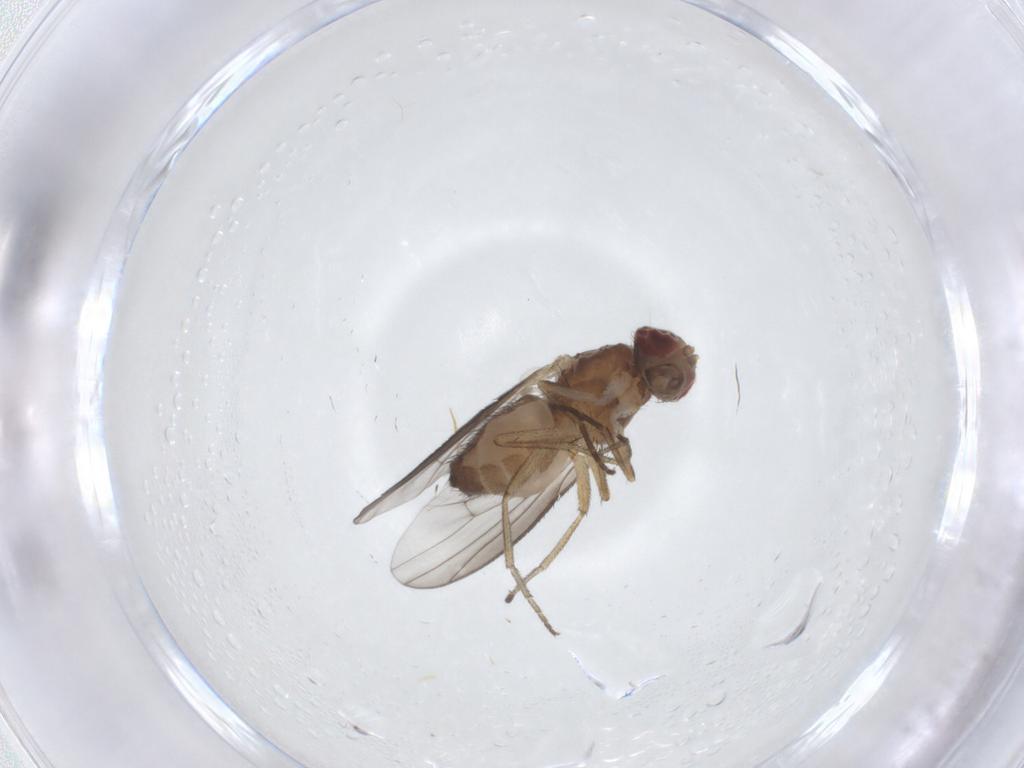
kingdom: Animalia
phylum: Arthropoda
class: Insecta
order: Diptera
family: Heleomyzidae
